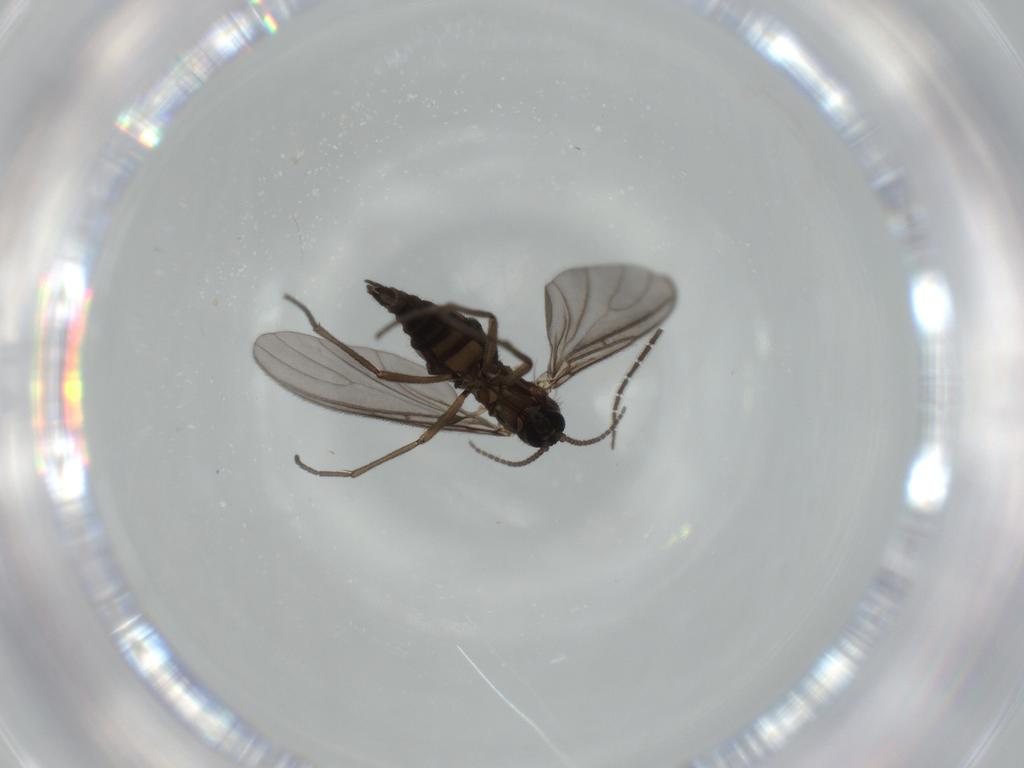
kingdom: Animalia
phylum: Arthropoda
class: Insecta
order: Diptera
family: Sciaridae
